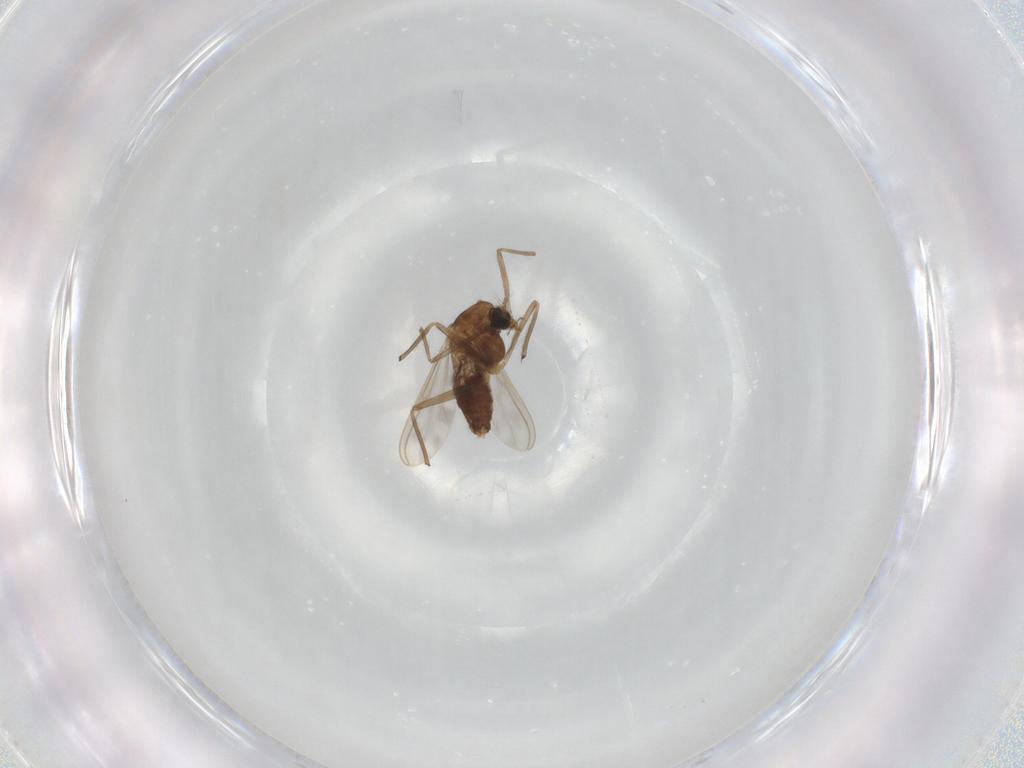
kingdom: Animalia
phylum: Arthropoda
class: Insecta
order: Diptera
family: Chironomidae
